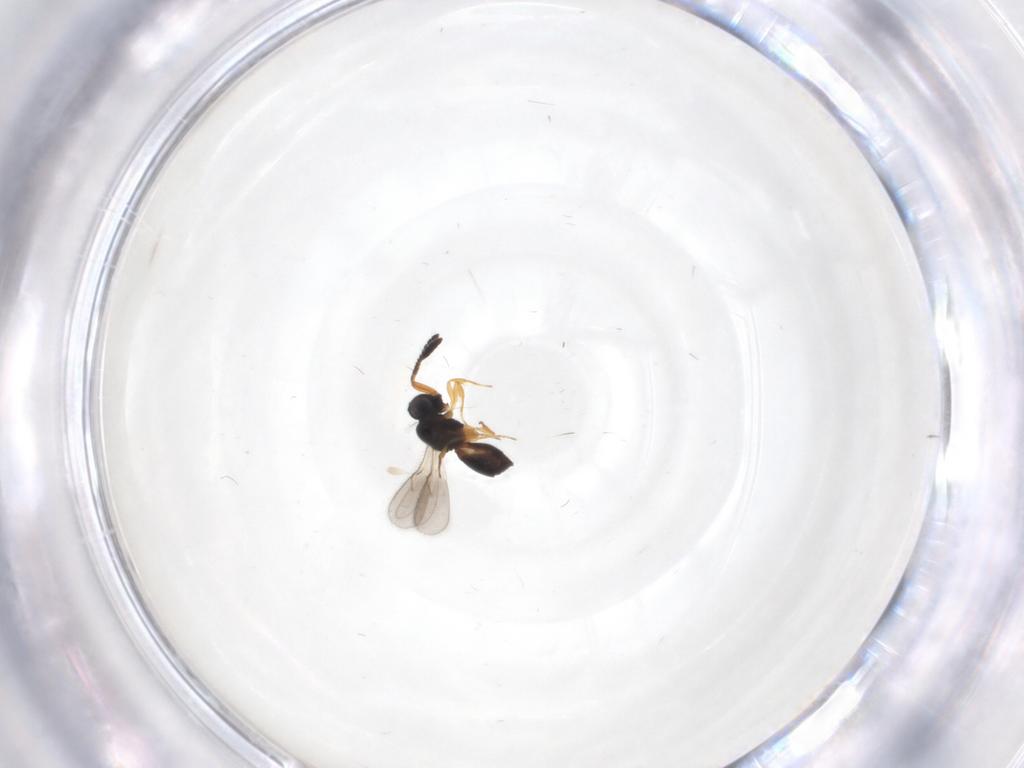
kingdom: Animalia
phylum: Arthropoda
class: Insecta
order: Hymenoptera
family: Scelionidae
